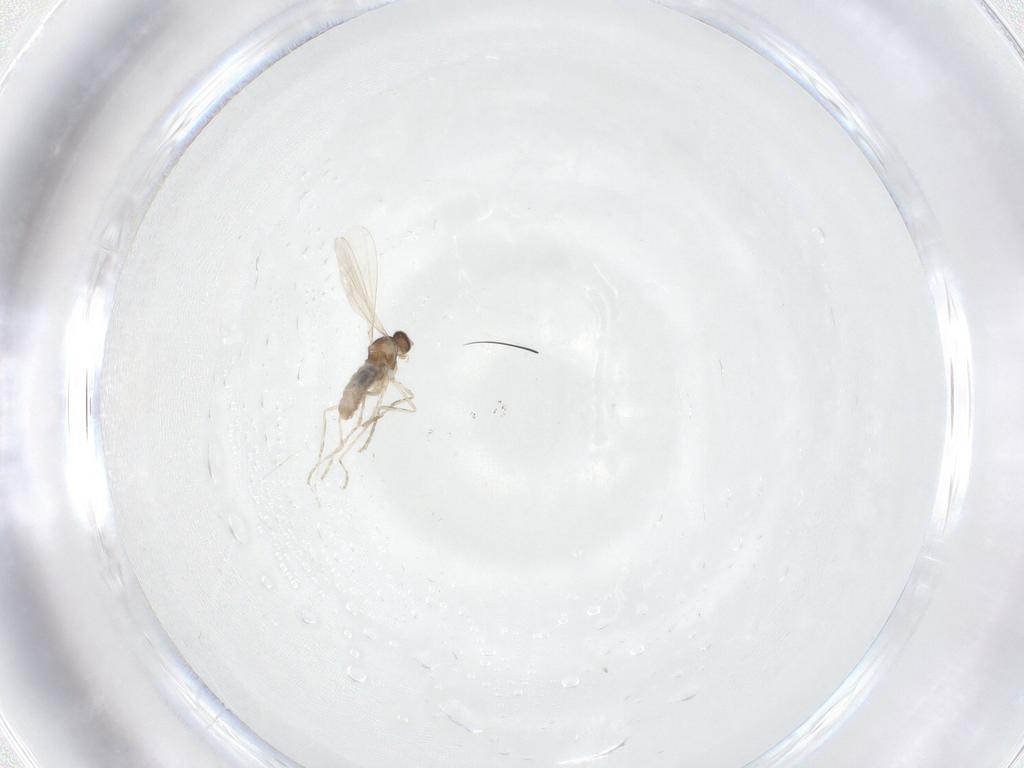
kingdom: Animalia
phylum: Arthropoda
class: Insecta
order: Diptera
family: Cecidomyiidae
